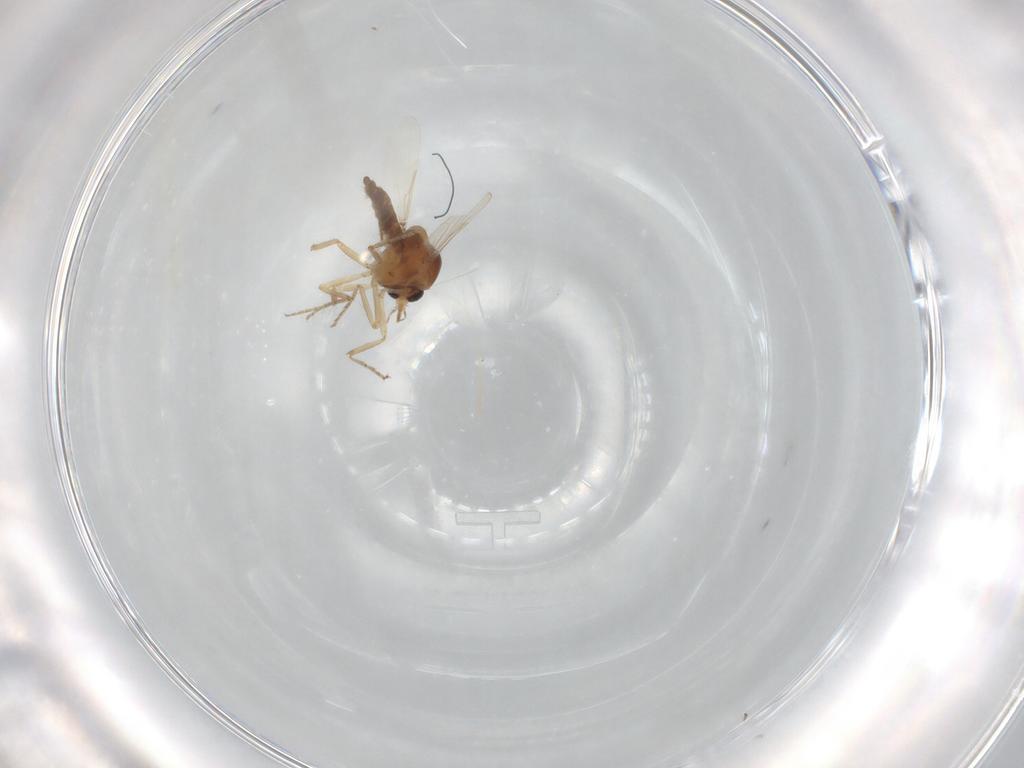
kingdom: Animalia
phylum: Arthropoda
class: Insecta
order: Diptera
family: Ceratopogonidae
